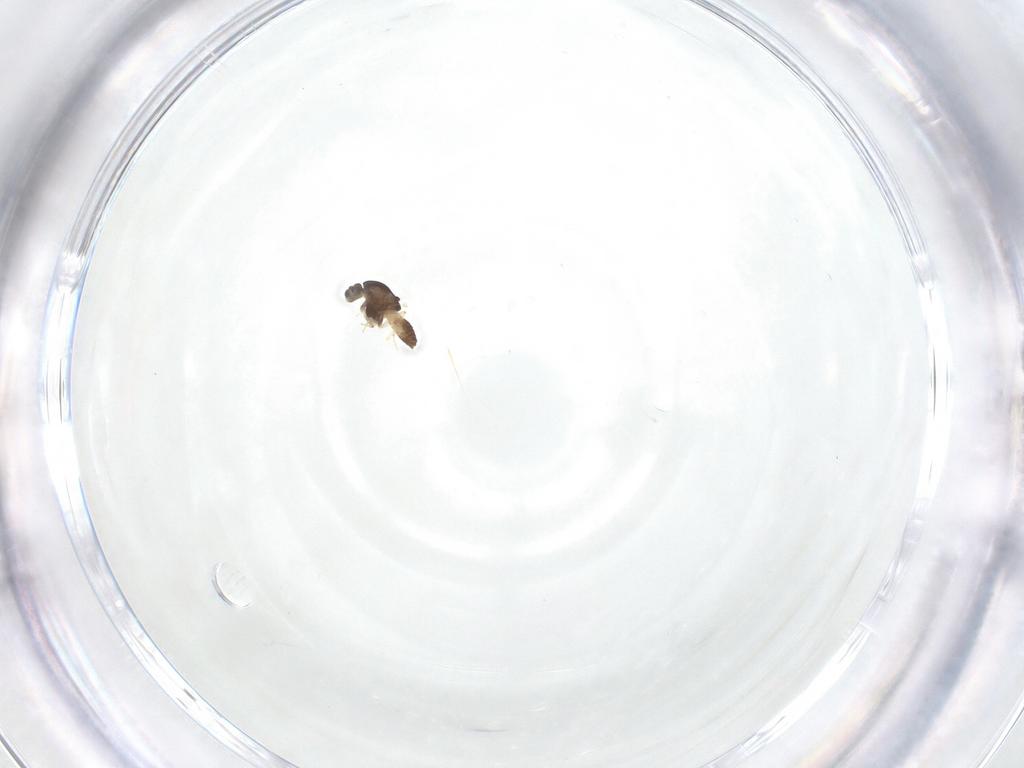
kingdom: Animalia
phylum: Arthropoda
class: Insecta
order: Diptera
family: Chironomidae
